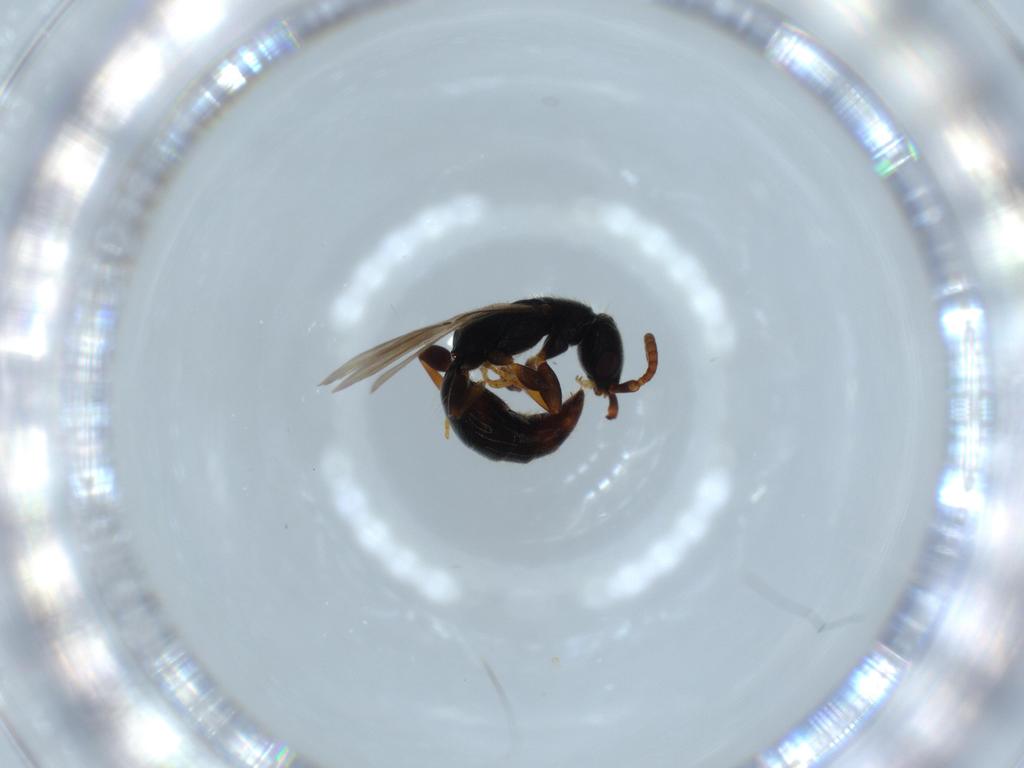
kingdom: Animalia
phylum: Arthropoda
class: Insecta
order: Hymenoptera
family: Bethylidae
